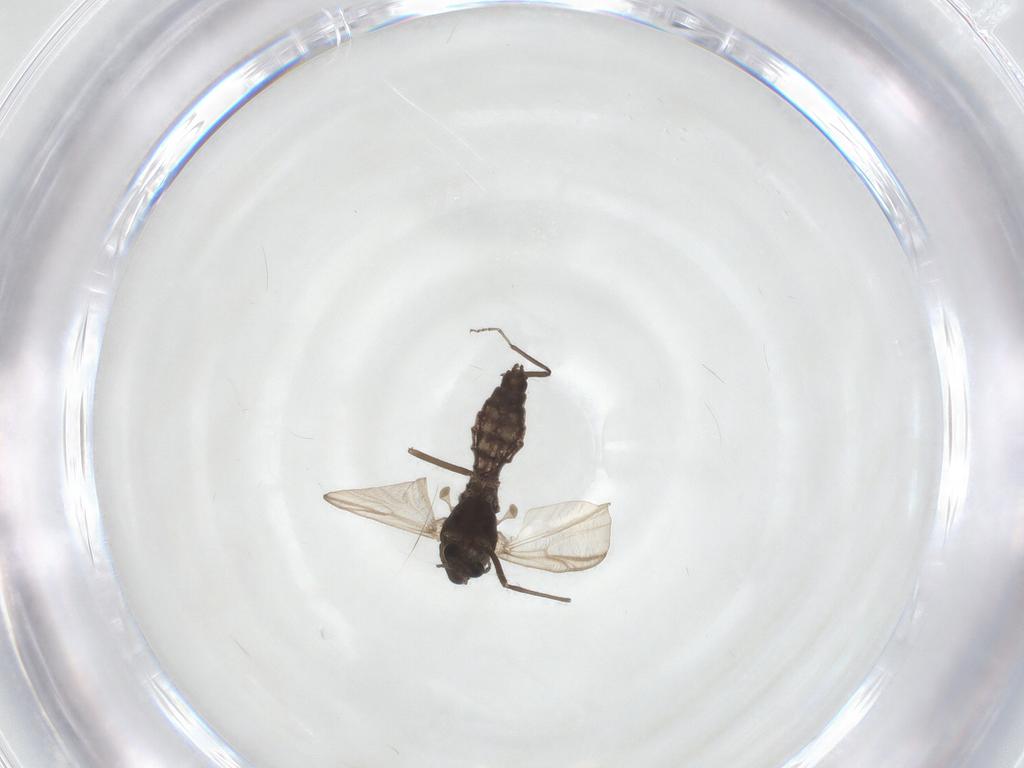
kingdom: Animalia
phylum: Arthropoda
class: Insecta
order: Diptera
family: Chironomidae
